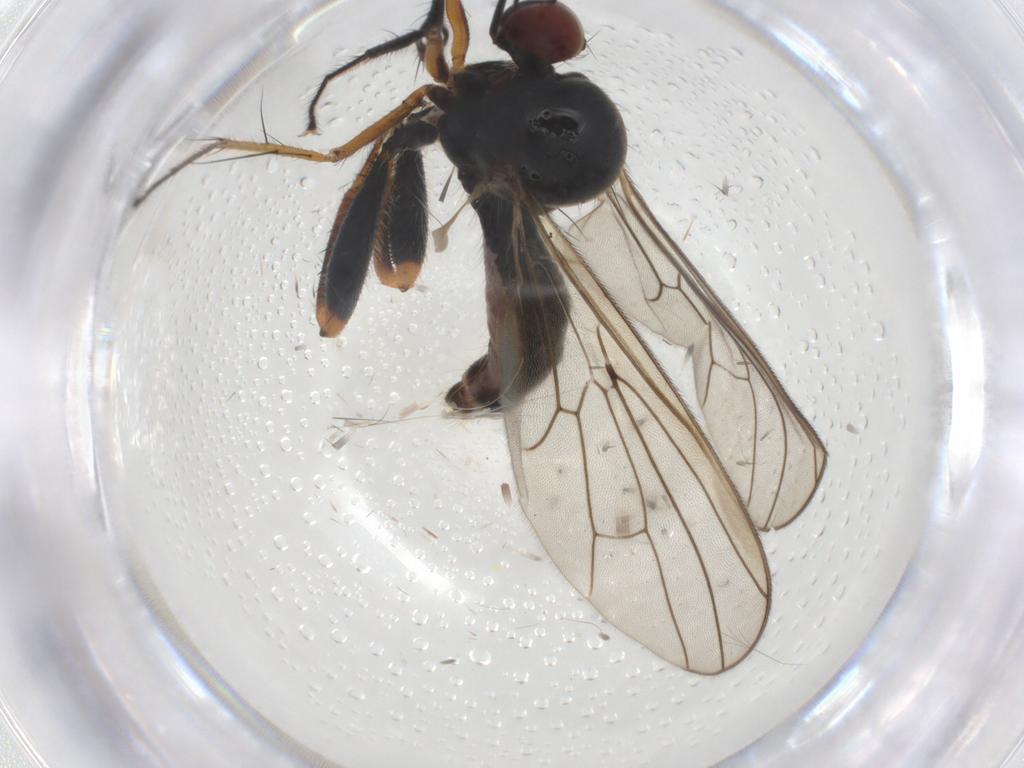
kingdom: Animalia
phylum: Arthropoda
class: Insecta
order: Diptera
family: Hybotidae
